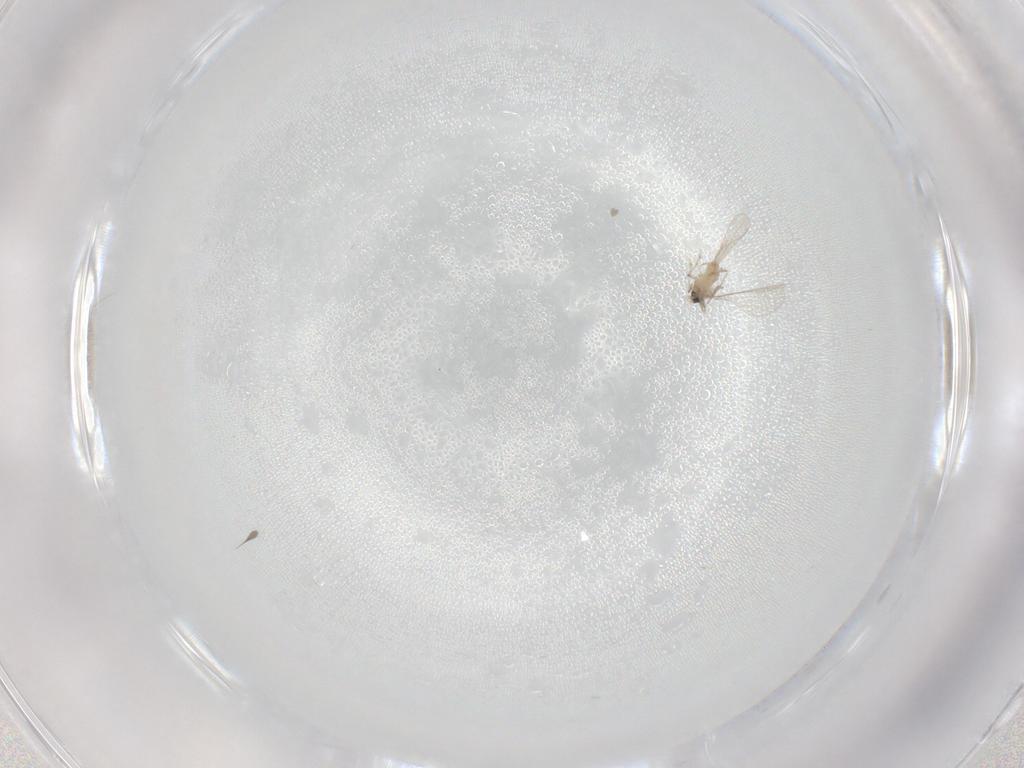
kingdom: Animalia
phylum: Arthropoda
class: Insecta
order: Diptera
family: Cecidomyiidae
